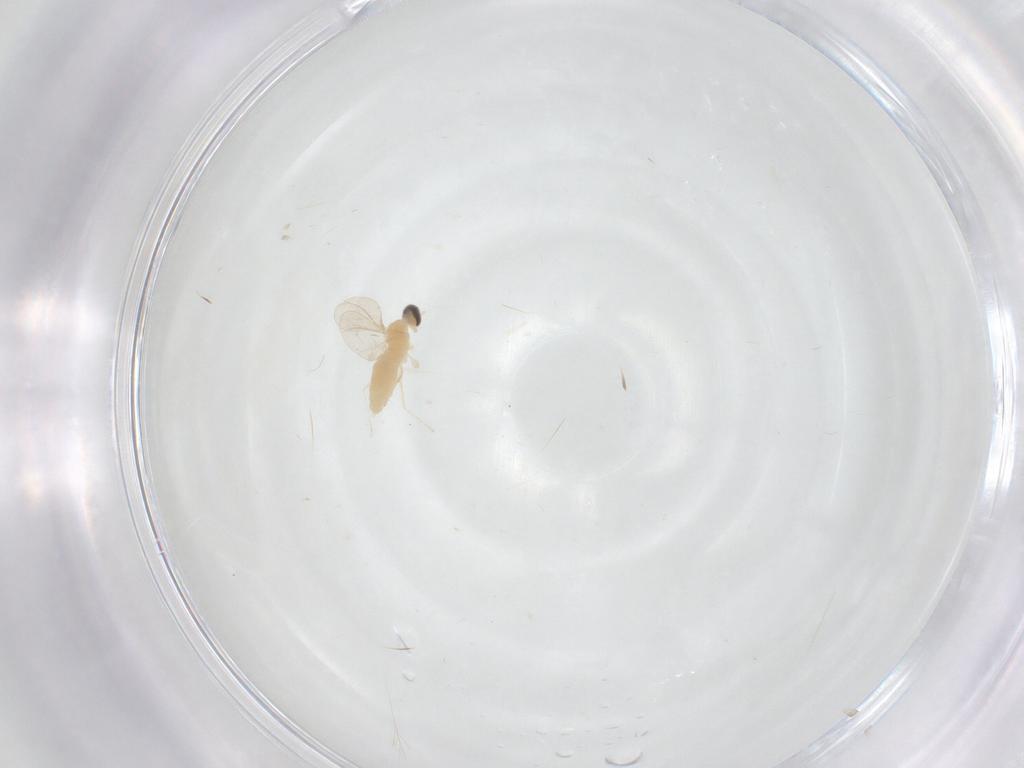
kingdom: Animalia
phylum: Arthropoda
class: Insecta
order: Diptera
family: Cecidomyiidae
